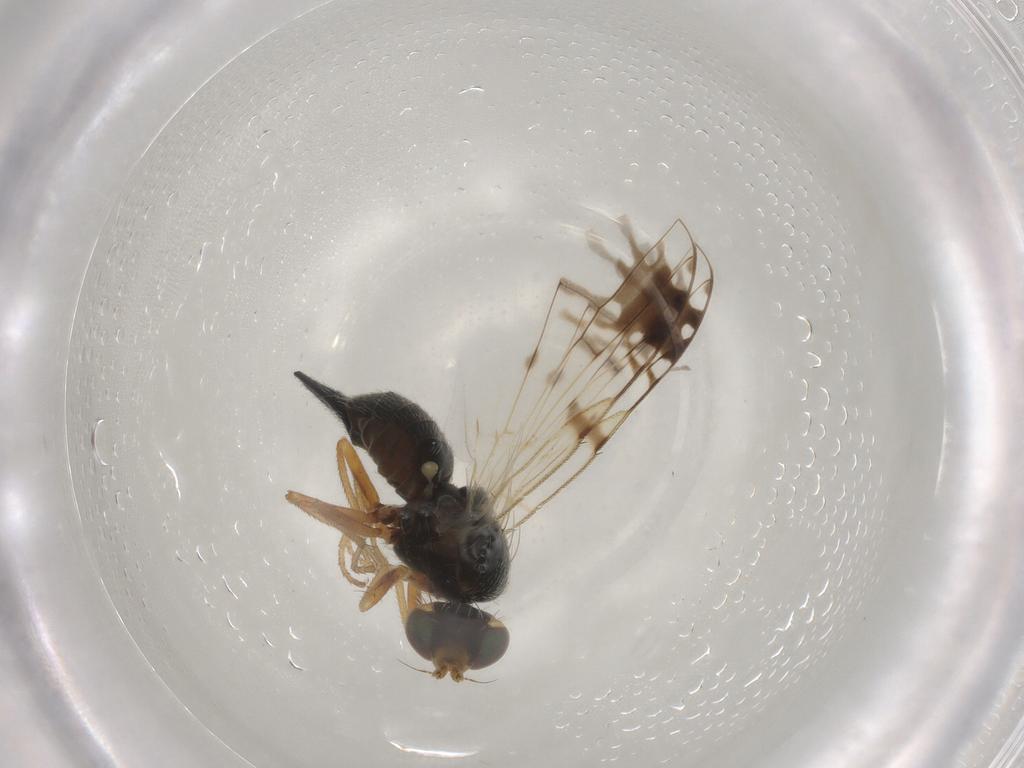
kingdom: Animalia
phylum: Arthropoda
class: Insecta
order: Diptera
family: Tephritidae
